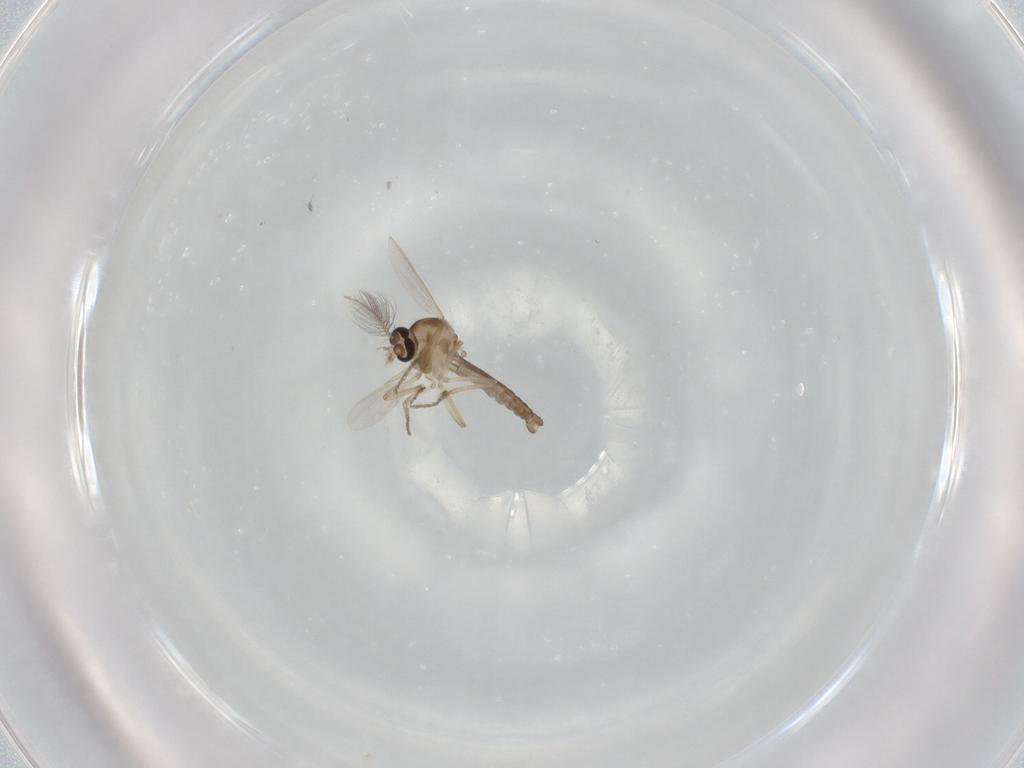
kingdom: Animalia
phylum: Arthropoda
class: Insecta
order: Diptera
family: Ceratopogonidae
